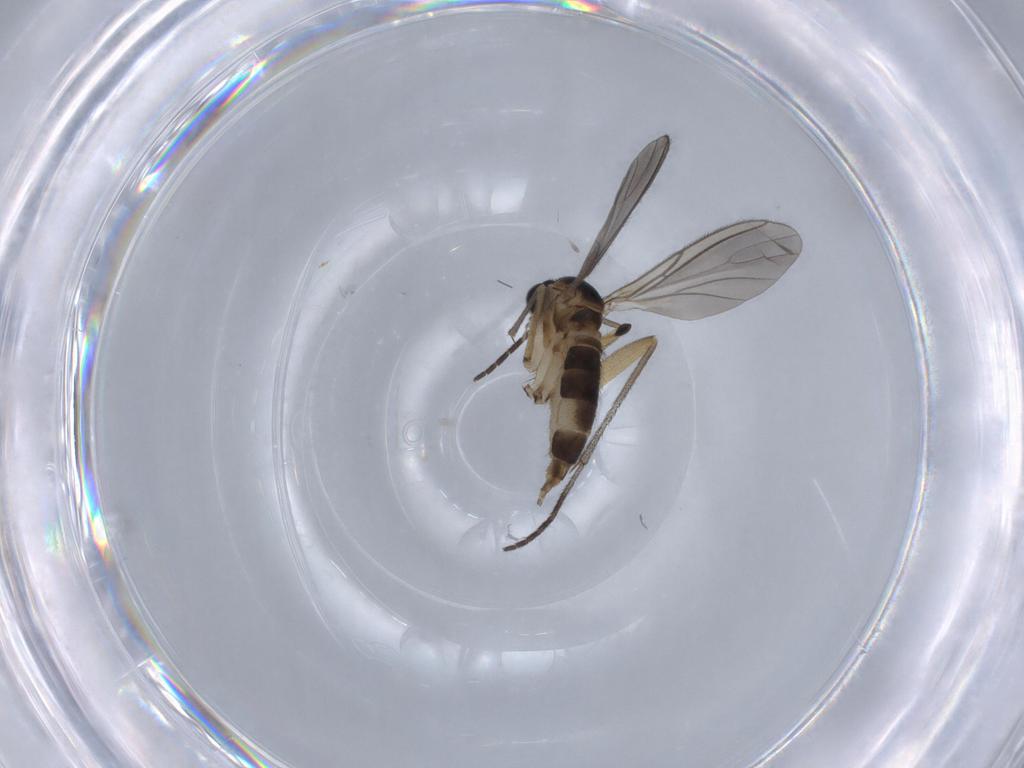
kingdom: Animalia
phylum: Arthropoda
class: Insecta
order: Diptera
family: Sciaridae
